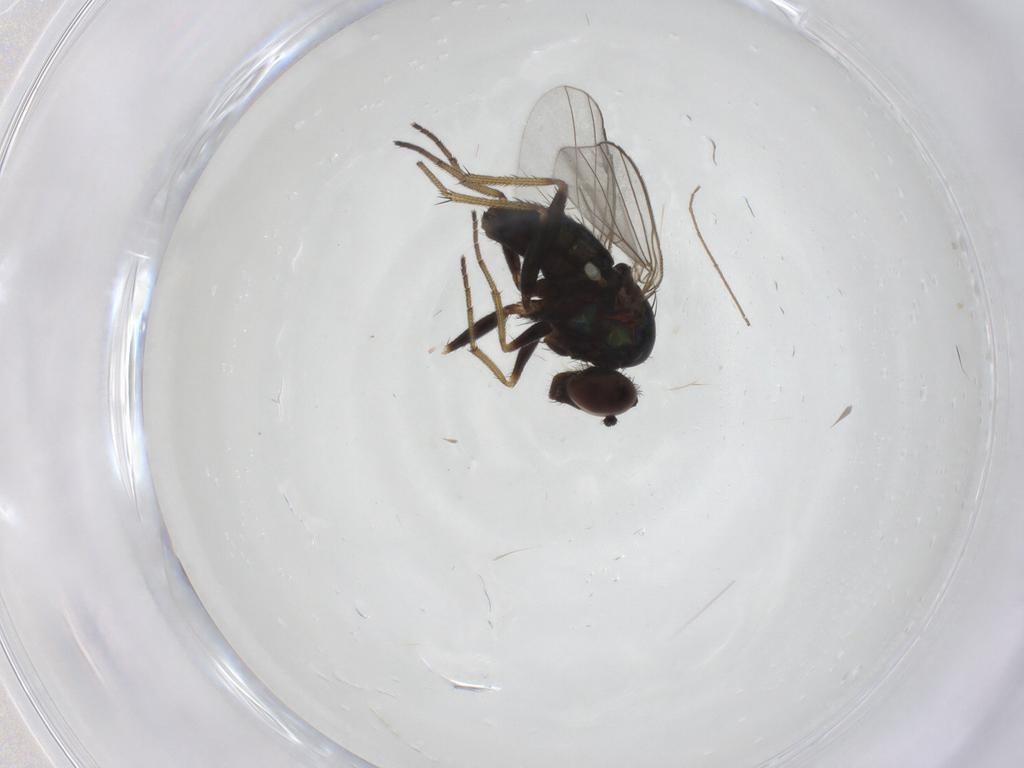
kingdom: Animalia
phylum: Arthropoda
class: Insecta
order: Diptera
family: Dolichopodidae
